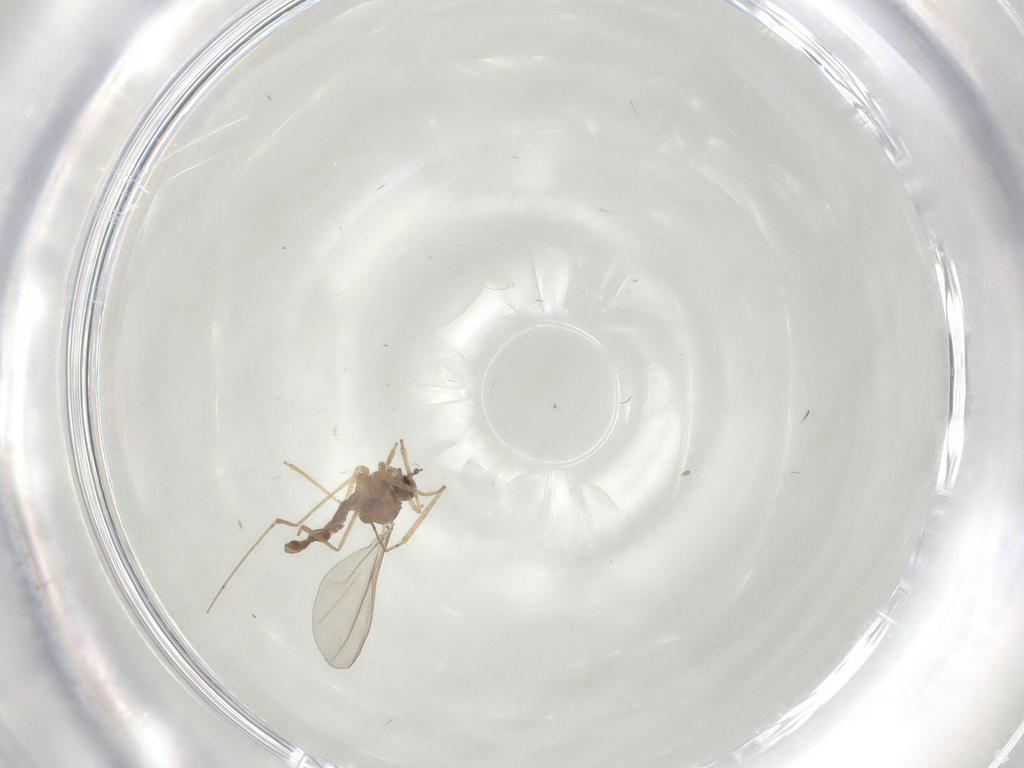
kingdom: Animalia
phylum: Arthropoda
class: Insecta
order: Diptera
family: Cecidomyiidae
